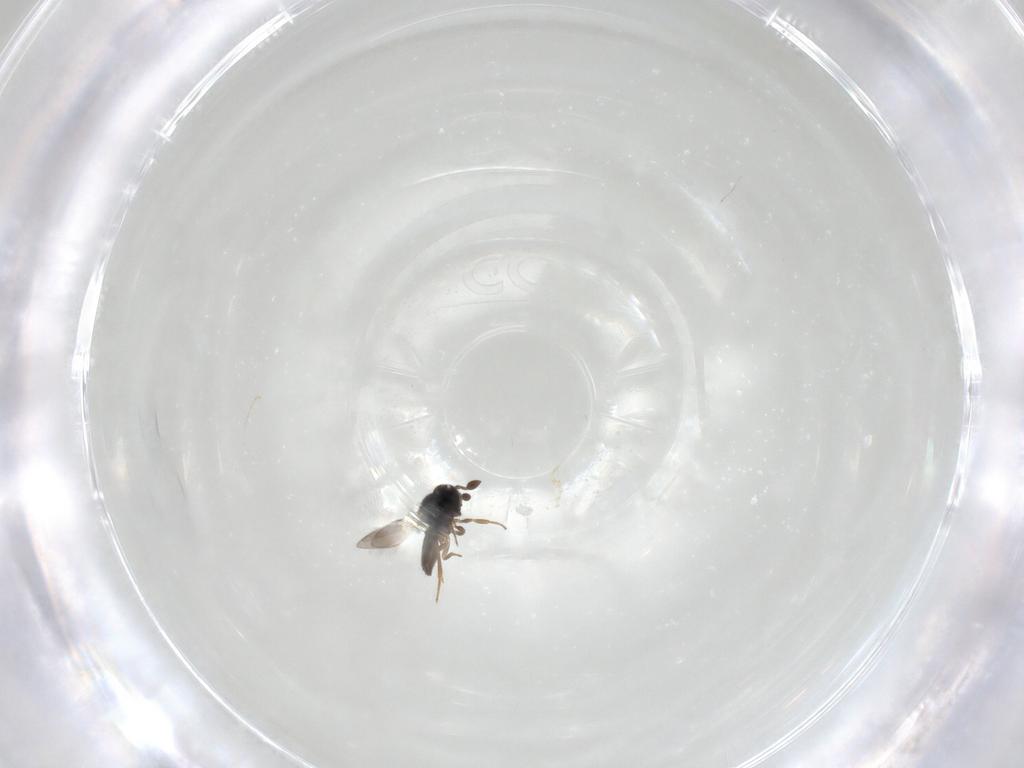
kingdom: Animalia
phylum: Arthropoda
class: Insecta
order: Hymenoptera
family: Scelionidae
